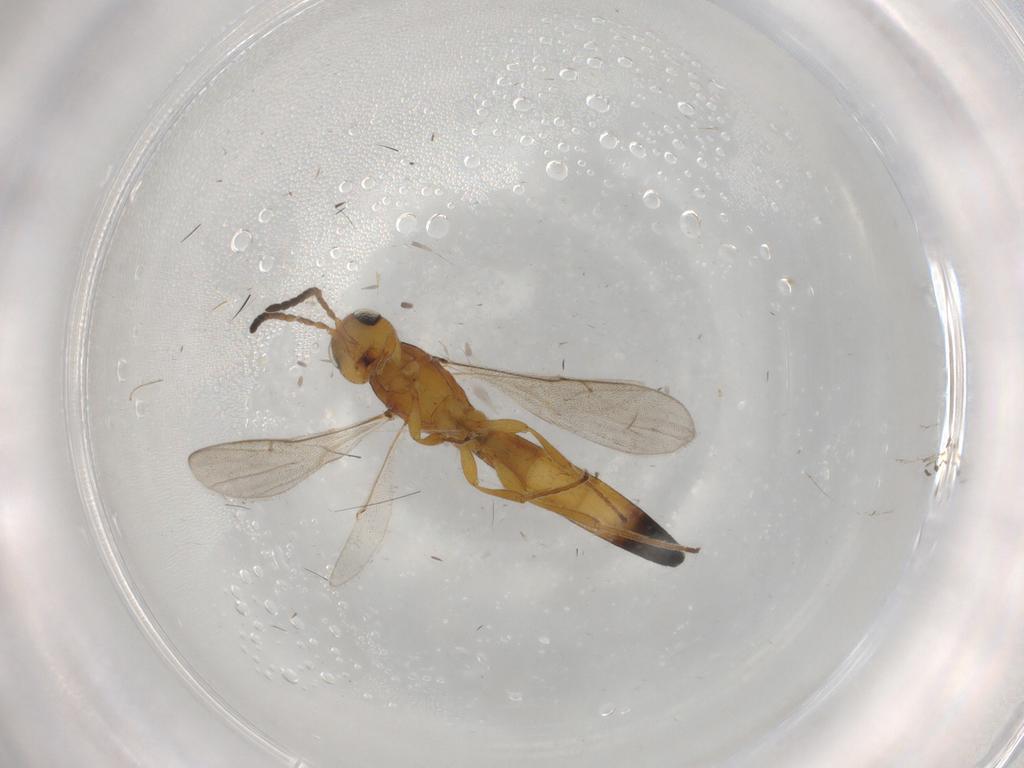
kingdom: Animalia
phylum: Arthropoda
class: Insecta
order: Hymenoptera
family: Scelionidae
